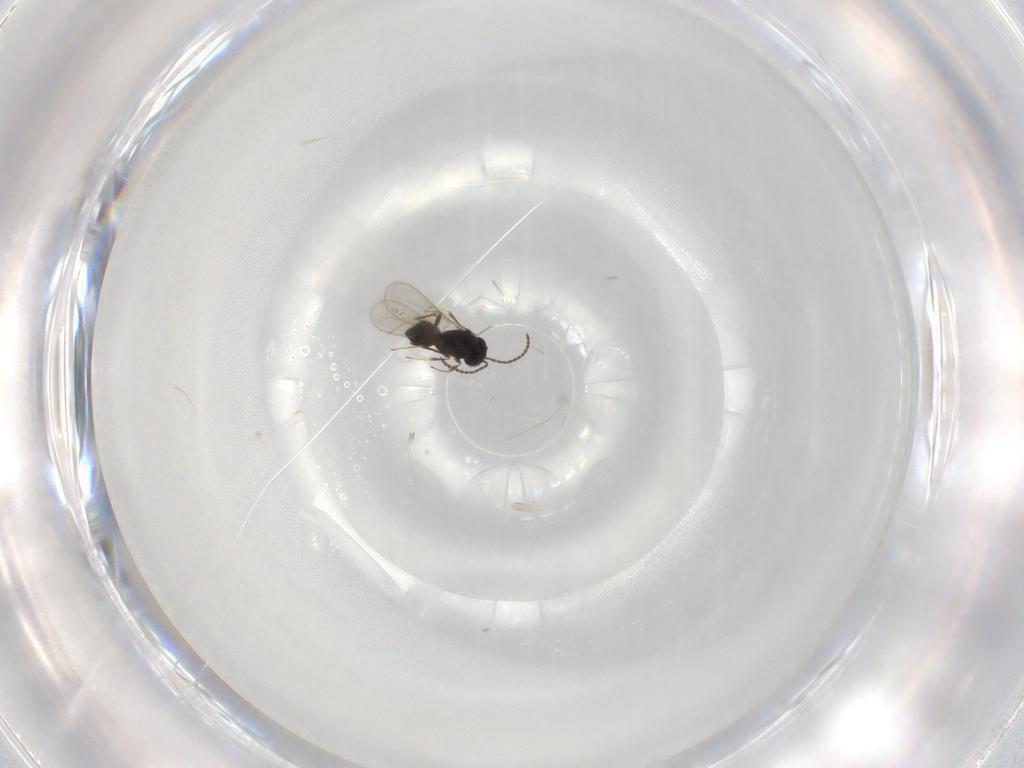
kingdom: Animalia
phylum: Arthropoda
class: Insecta
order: Hymenoptera
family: Scelionidae
